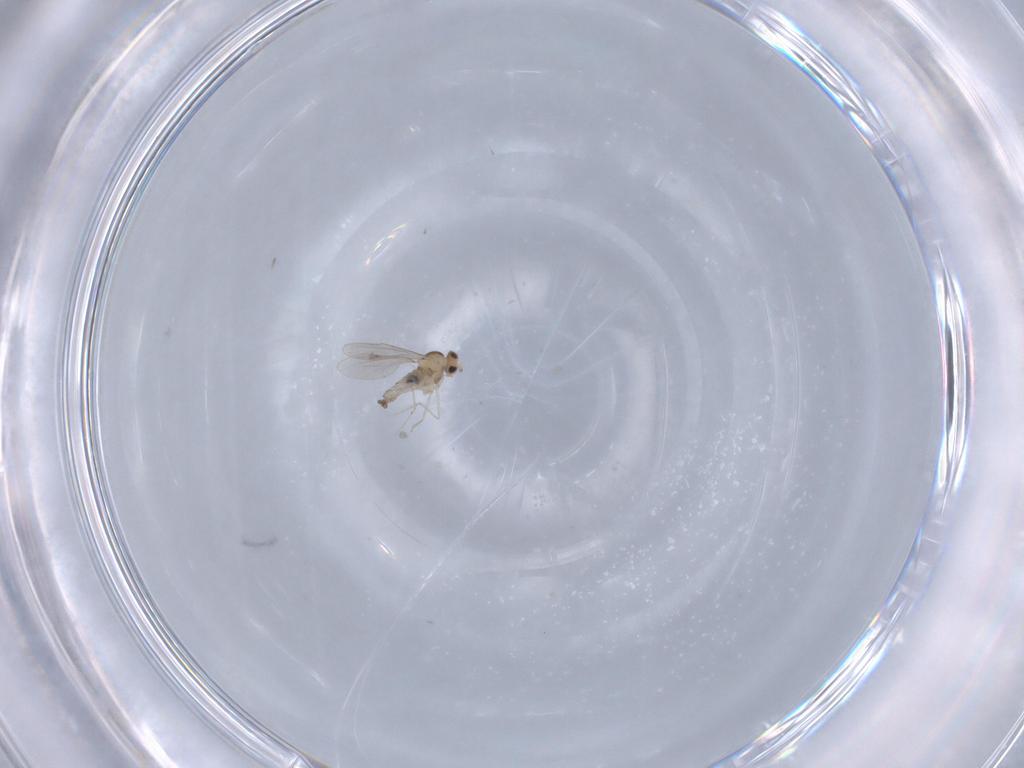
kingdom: Animalia
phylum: Arthropoda
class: Insecta
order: Diptera
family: Cecidomyiidae
